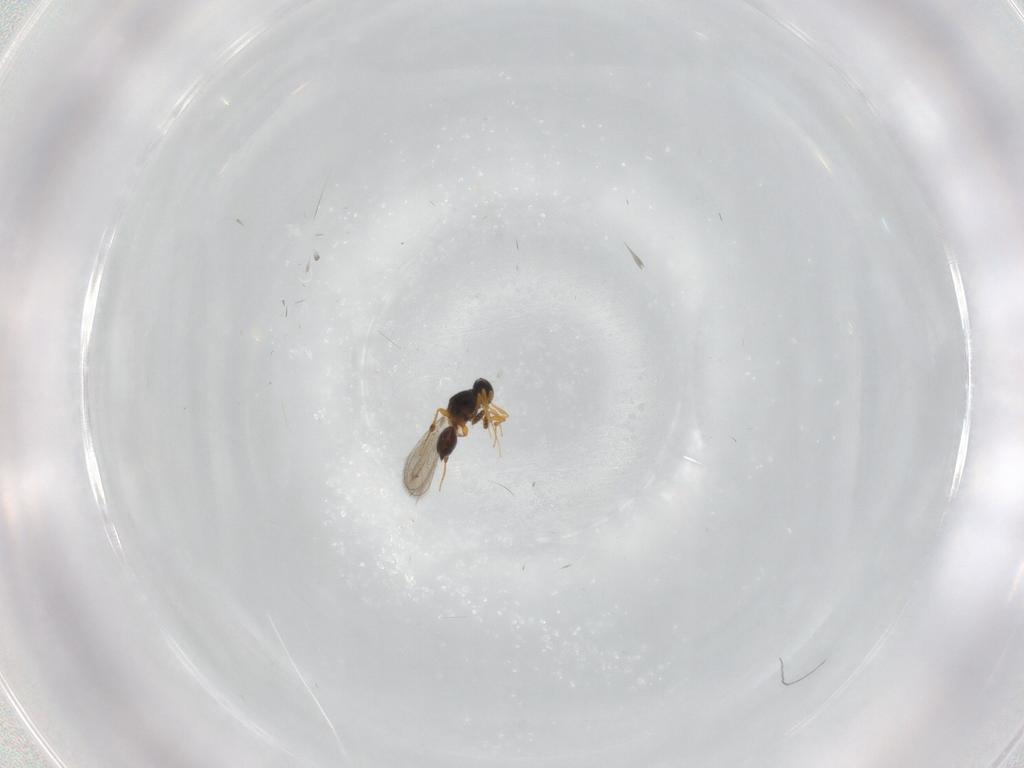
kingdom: Animalia
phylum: Arthropoda
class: Insecta
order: Hymenoptera
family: Platygastridae
